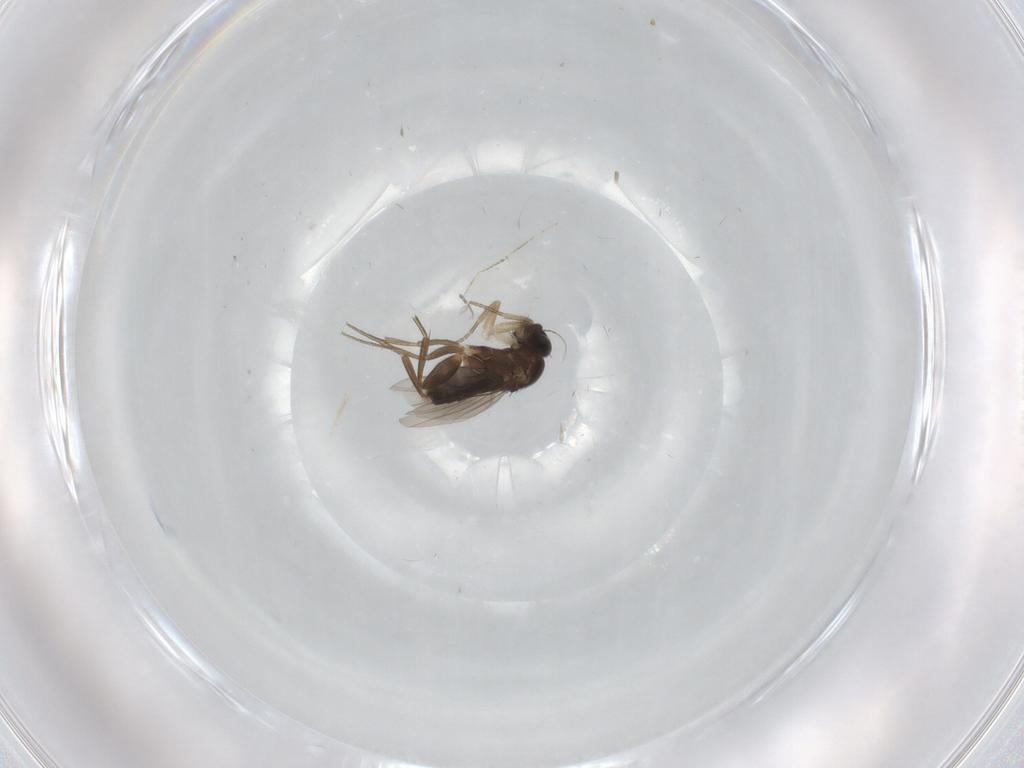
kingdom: Animalia
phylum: Arthropoda
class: Insecta
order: Diptera
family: Phoridae
